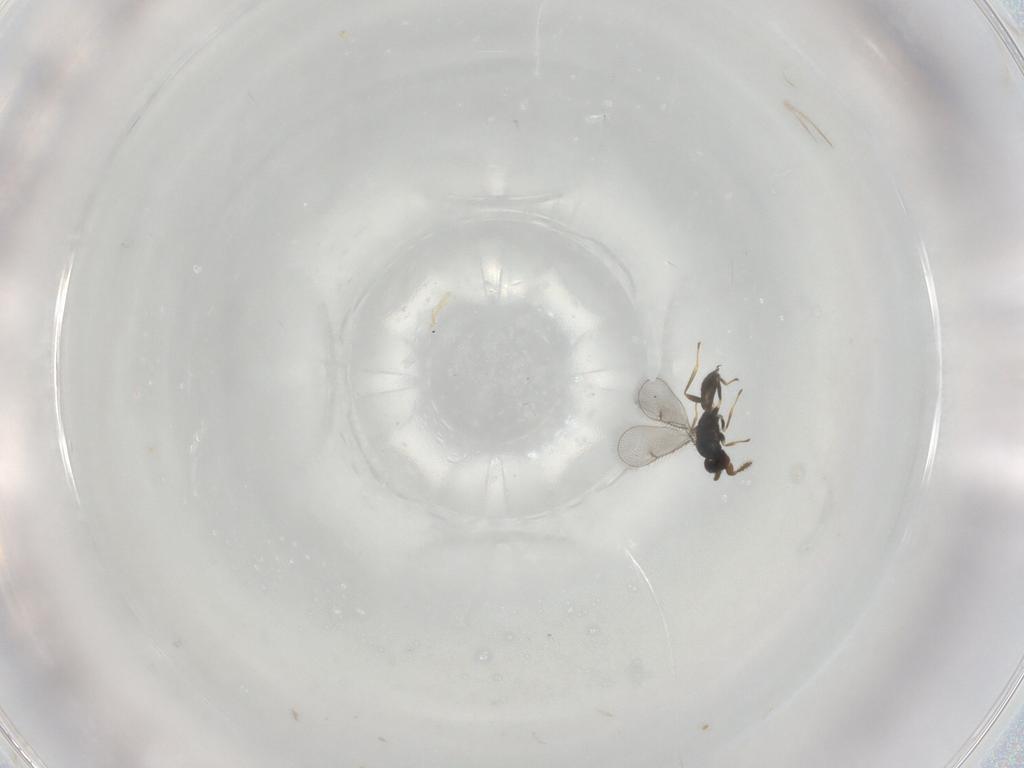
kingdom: Animalia
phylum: Arthropoda
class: Insecta
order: Hymenoptera
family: Eulophidae
